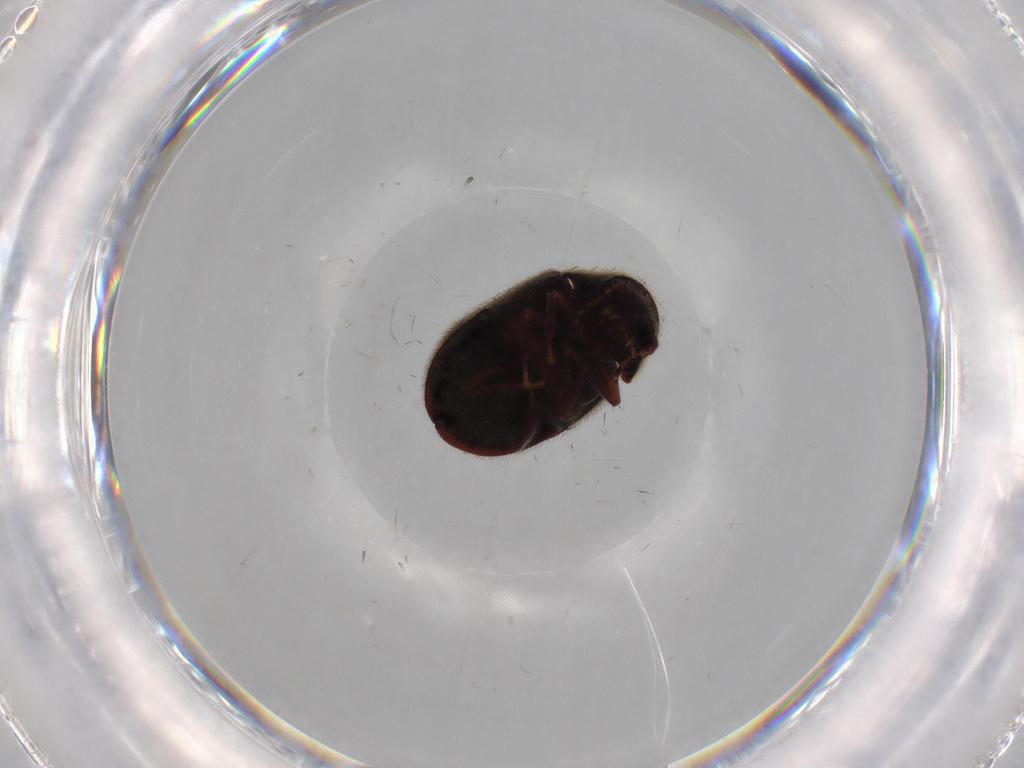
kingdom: Animalia
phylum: Arthropoda
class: Insecta
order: Coleoptera
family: Ptinidae
